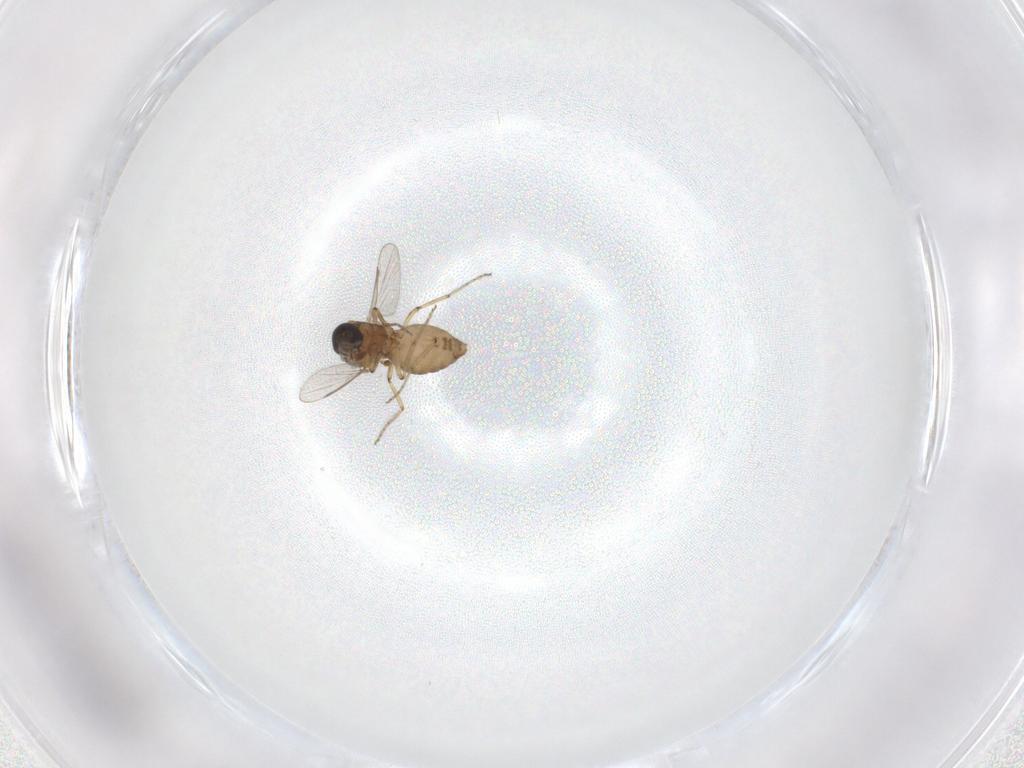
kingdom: Animalia
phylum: Arthropoda
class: Insecta
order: Diptera
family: Ceratopogonidae
